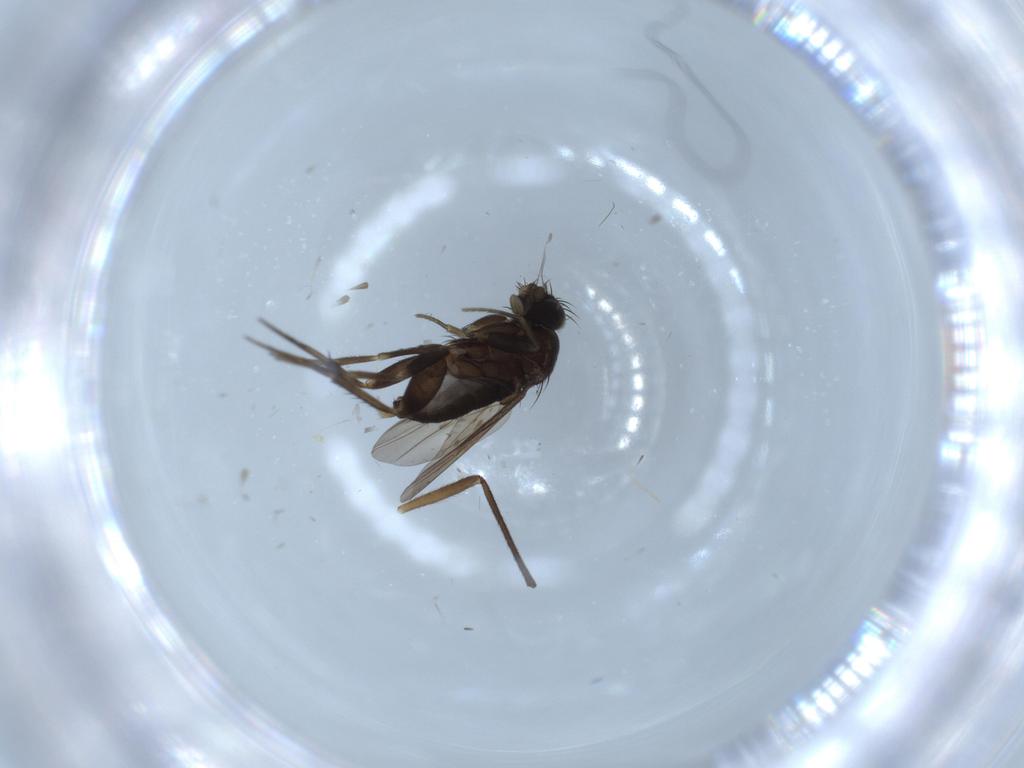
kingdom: Animalia
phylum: Arthropoda
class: Insecta
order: Diptera
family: Phoridae
